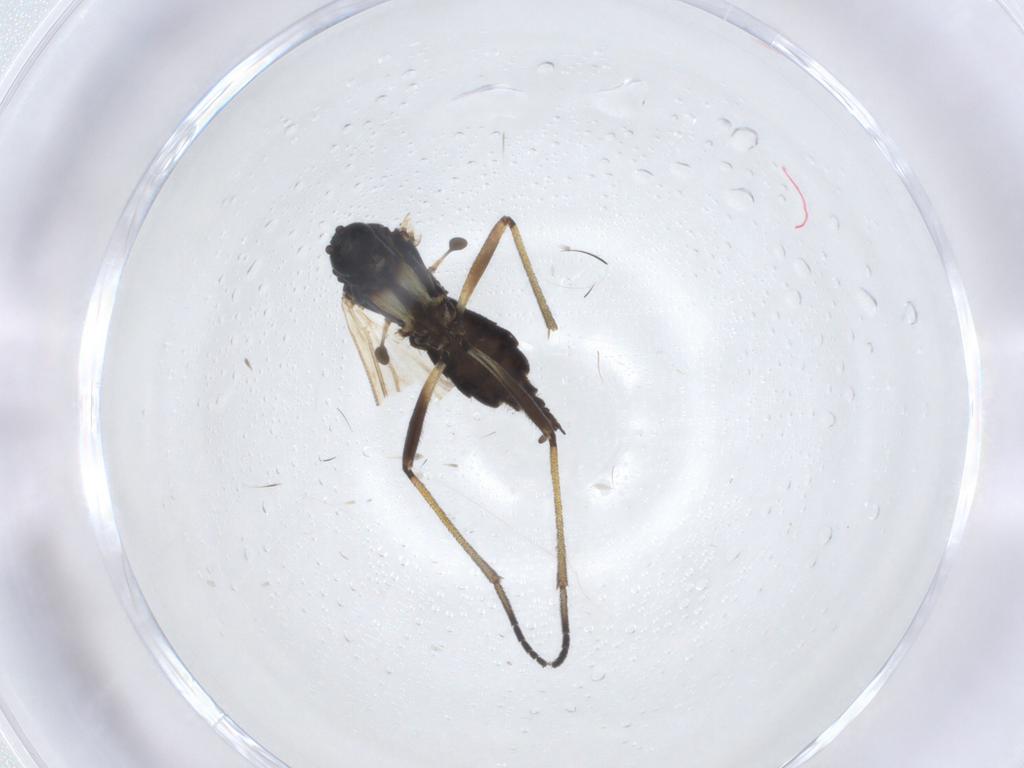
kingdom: Animalia
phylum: Arthropoda
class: Insecta
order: Diptera
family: Sciaridae
